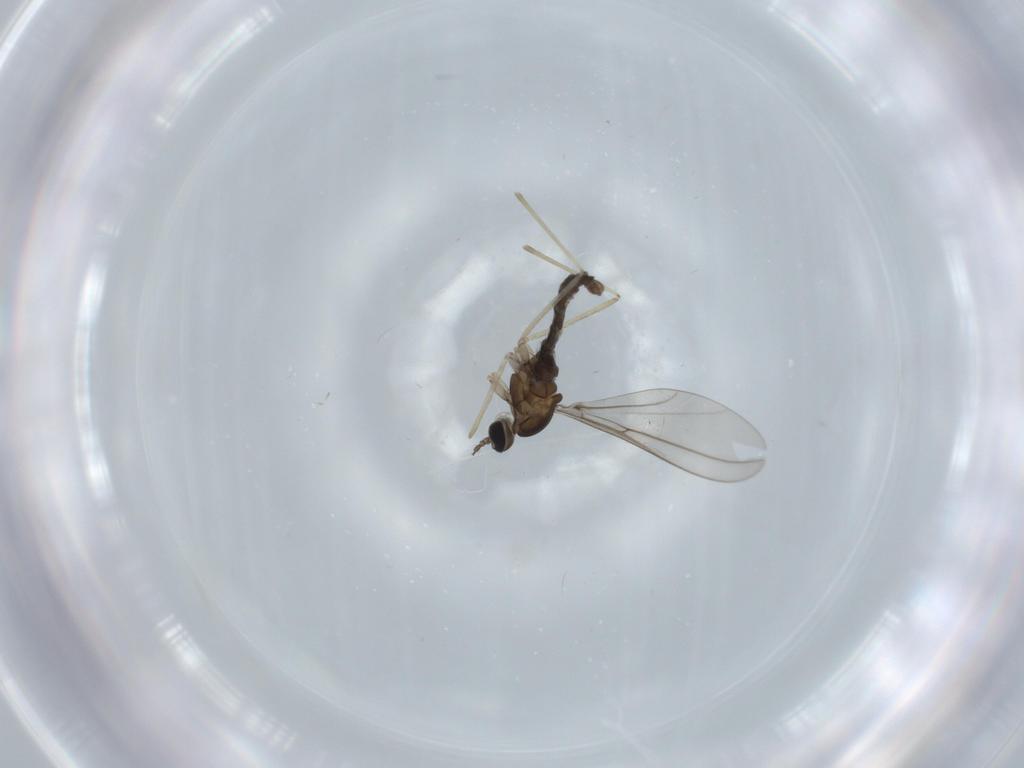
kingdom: Animalia
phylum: Arthropoda
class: Insecta
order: Diptera
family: Cecidomyiidae
